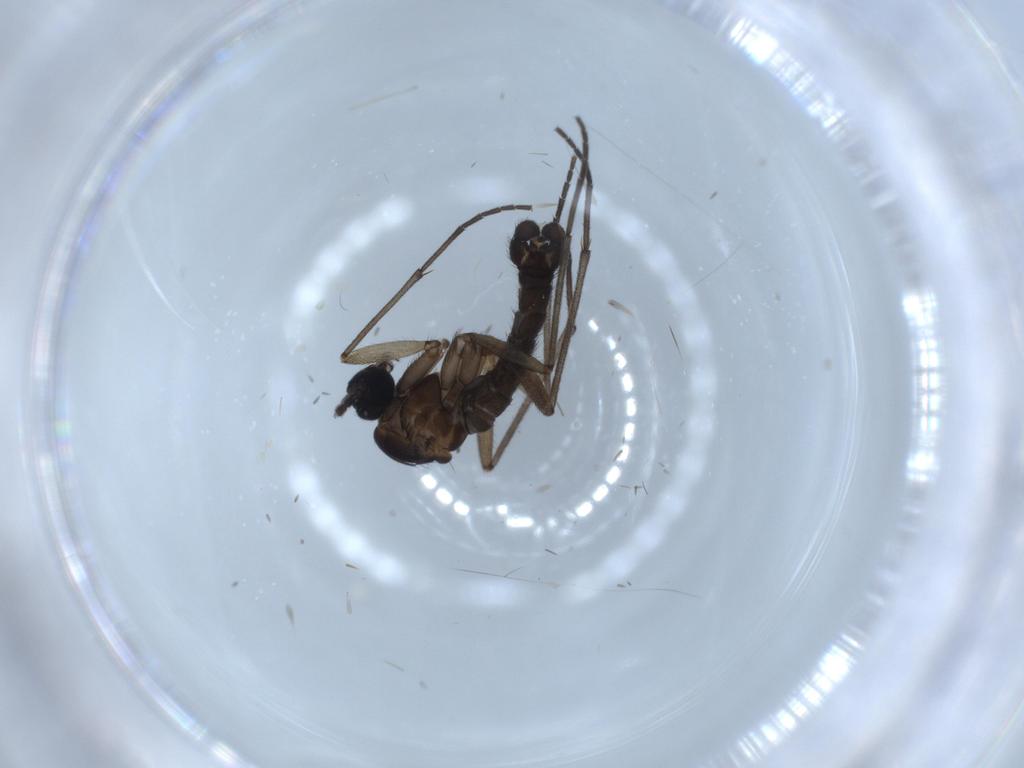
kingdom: Animalia
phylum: Arthropoda
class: Insecta
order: Diptera
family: Sciaridae
